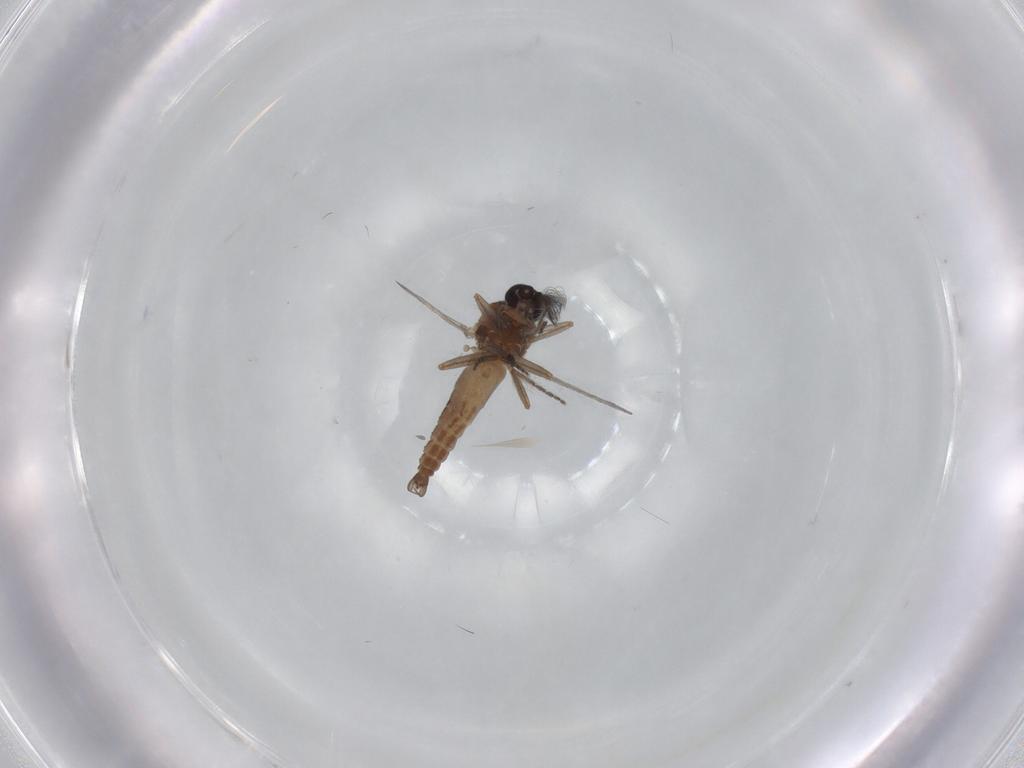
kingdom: Animalia
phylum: Arthropoda
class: Insecta
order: Diptera
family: Ceratopogonidae
